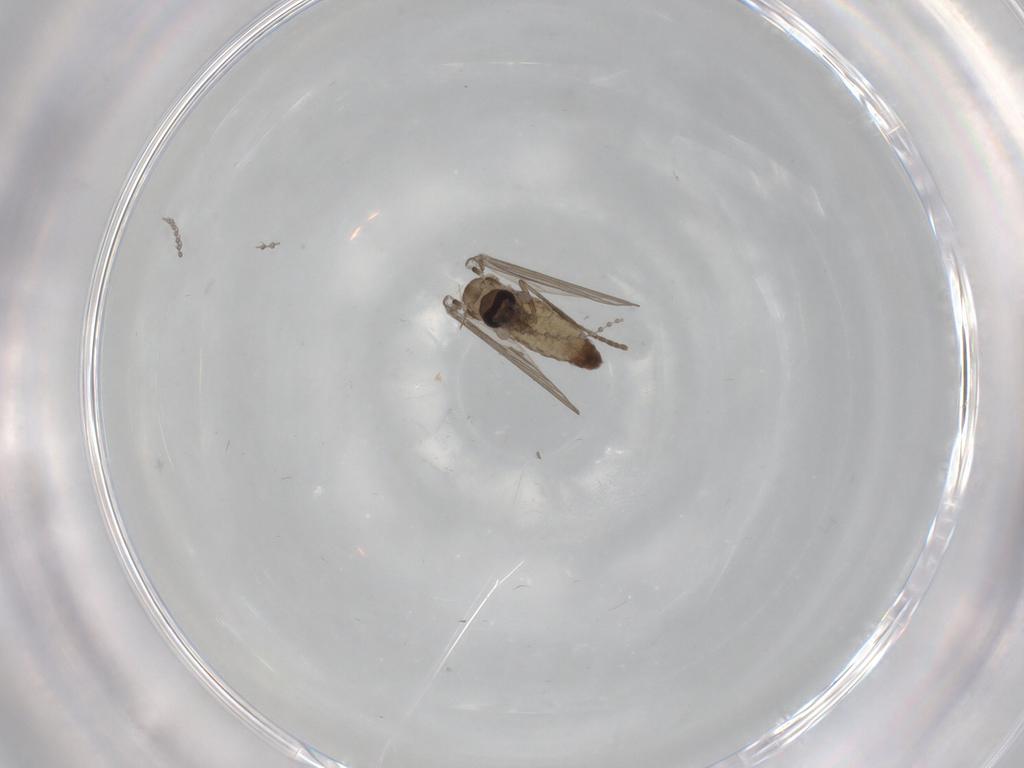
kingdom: Animalia
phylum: Arthropoda
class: Insecta
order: Diptera
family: Psychodidae
